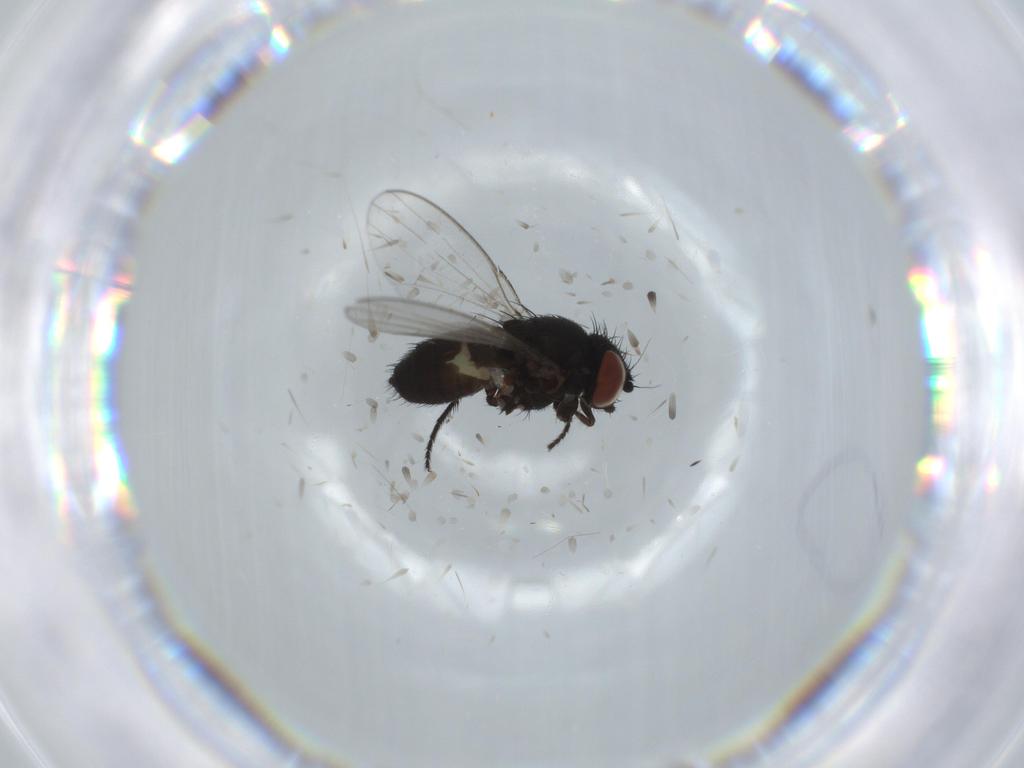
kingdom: Animalia
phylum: Arthropoda
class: Insecta
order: Diptera
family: Milichiidae
